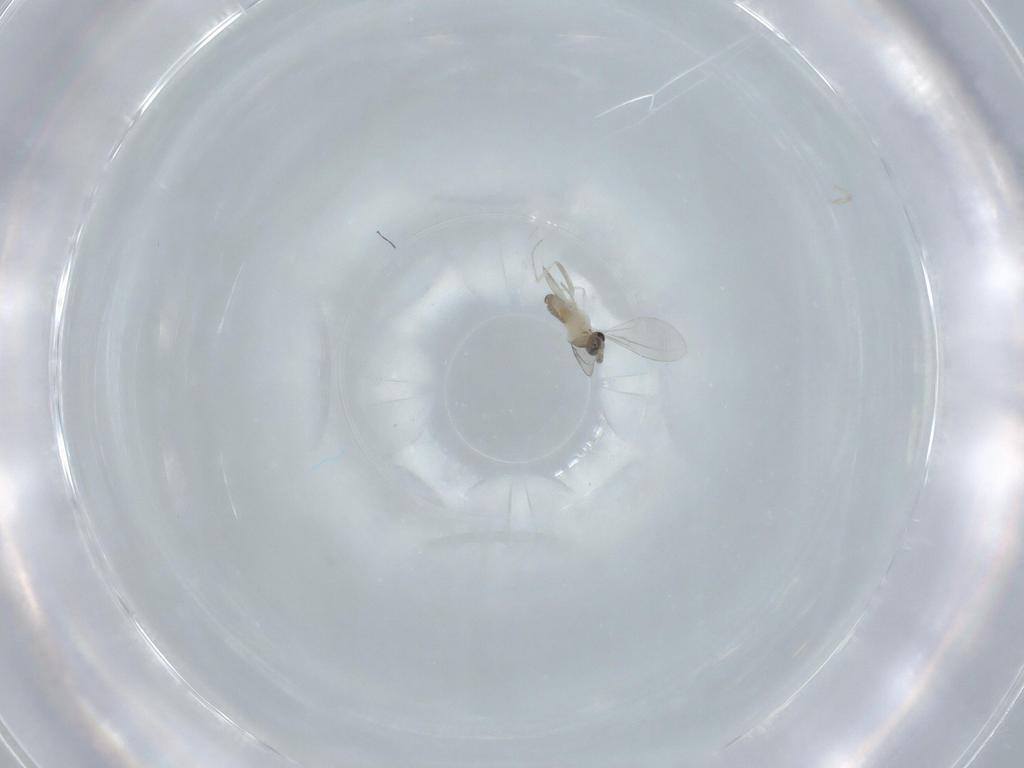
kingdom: Animalia
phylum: Arthropoda
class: Insecta
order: Diptera
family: Cecidomyiidae
